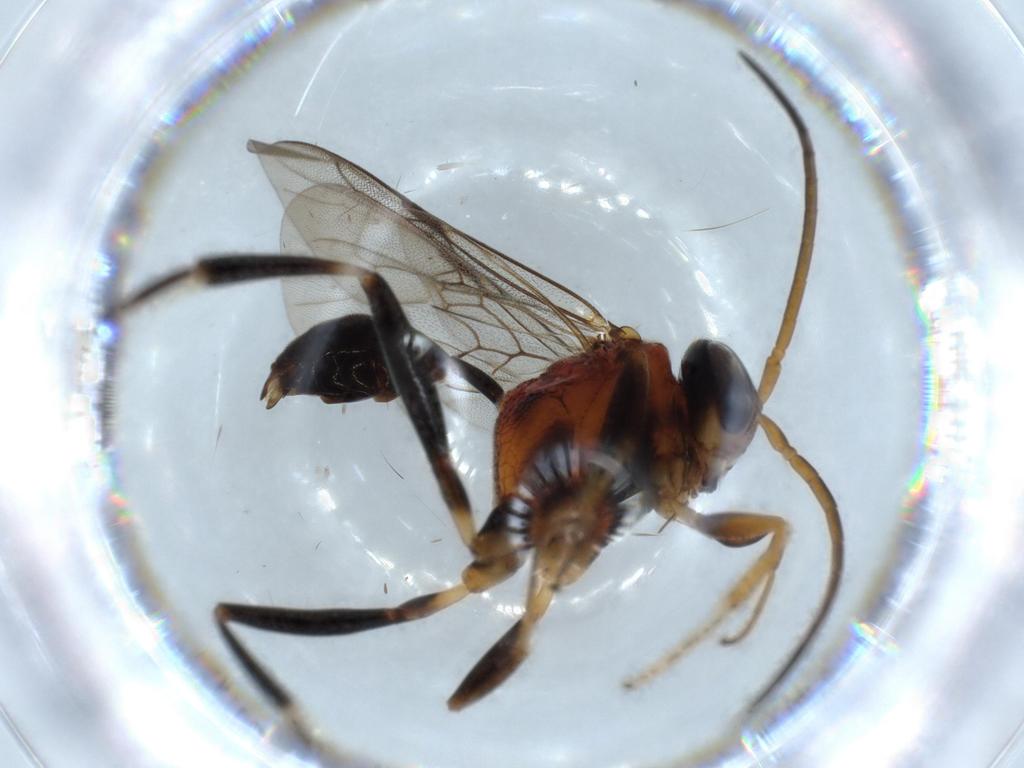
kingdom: Animalia
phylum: Arthropoda
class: Insecta
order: Hymenoptera
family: Scelionidae
